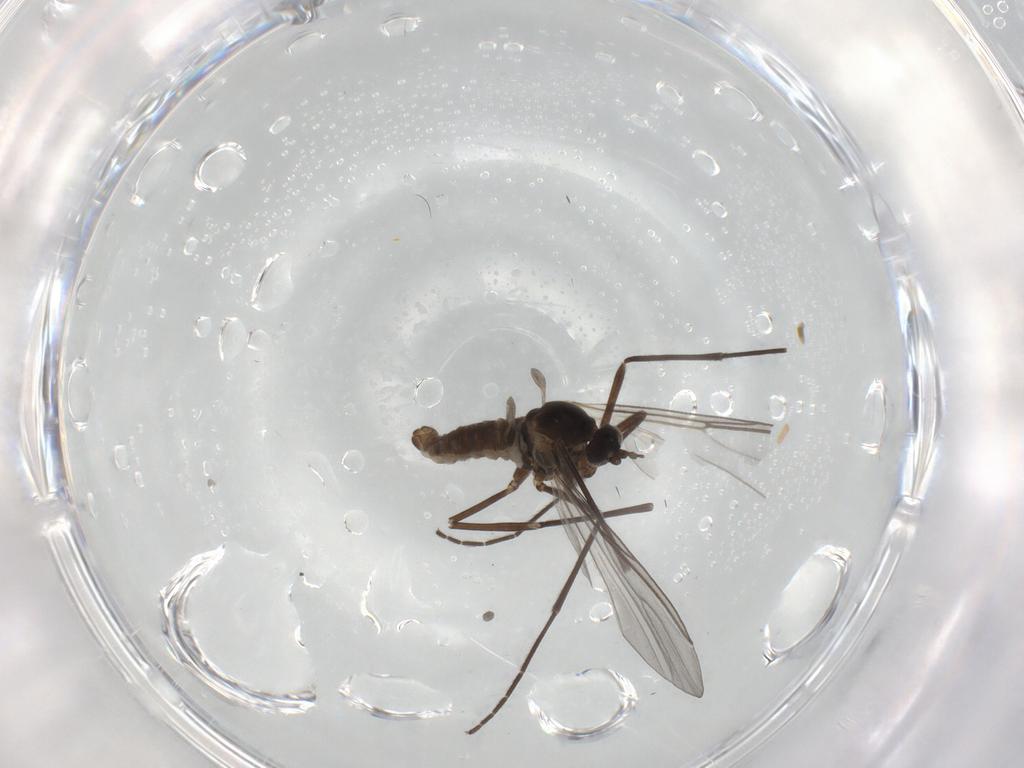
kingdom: Animalia
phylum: Arthropoda
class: Insecta
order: Diptera
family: Cecidomyiidae
